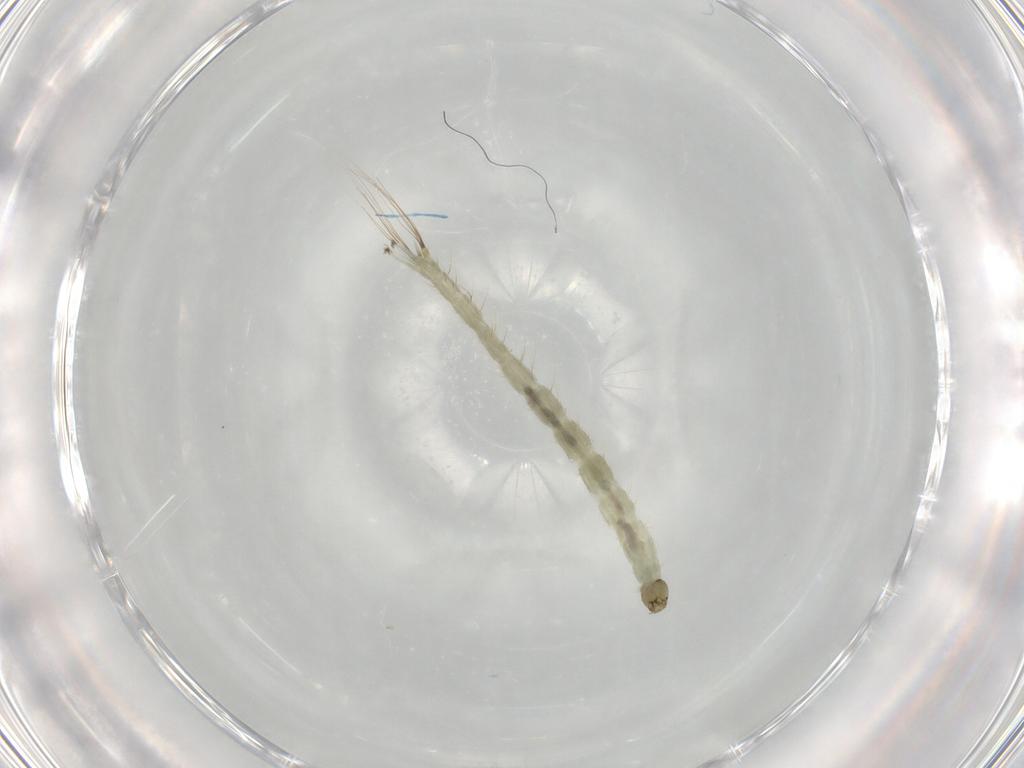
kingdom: Animalia
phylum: Arthropoda
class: Insecta
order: Diptera
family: Chironomidae
